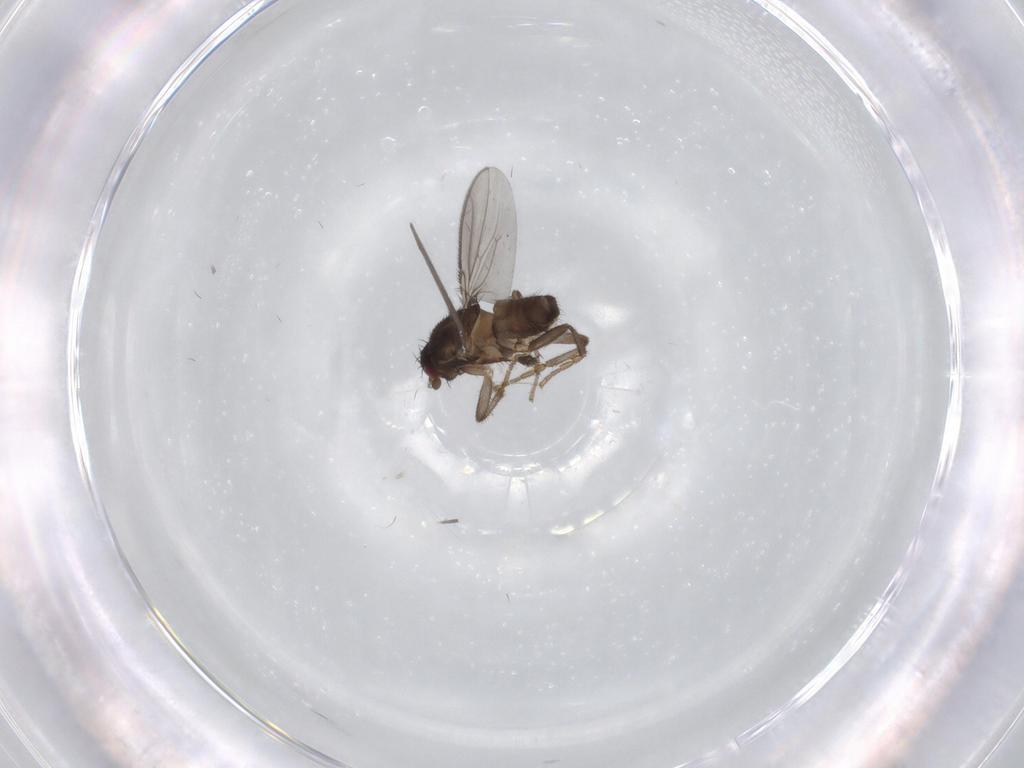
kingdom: Animalia
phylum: Arthropoda
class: Insecta
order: Diptera
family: Sphaeroceridae
